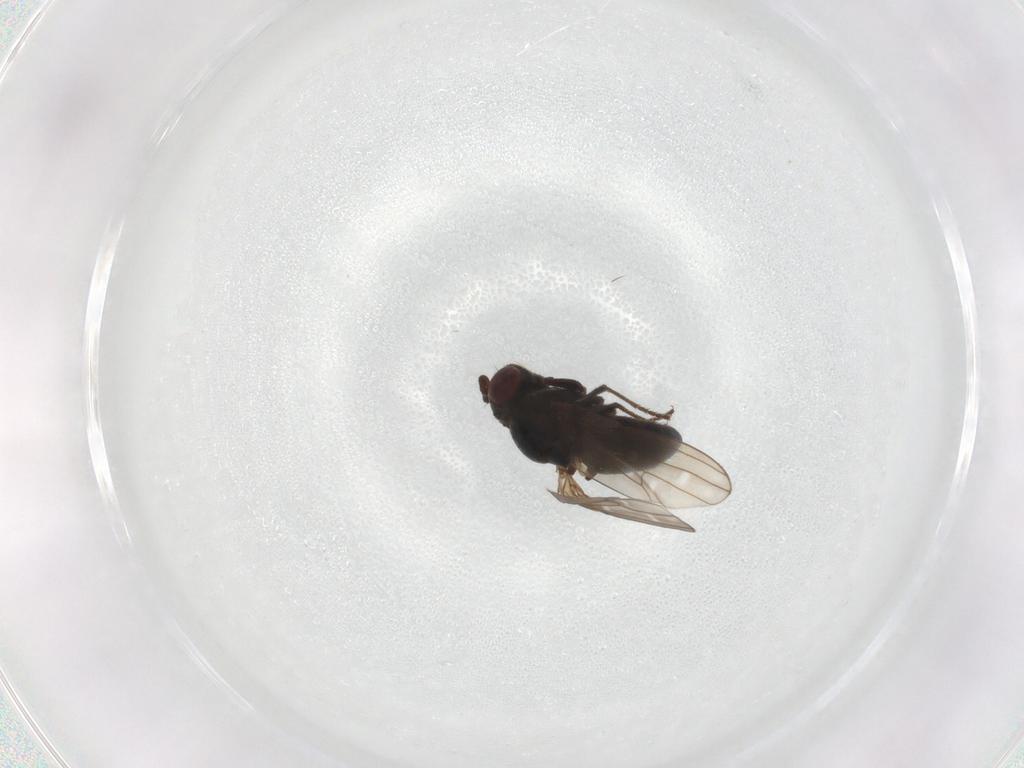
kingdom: Animalia
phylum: Arthropoda
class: Insecta
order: Diptera
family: Ephydridae
